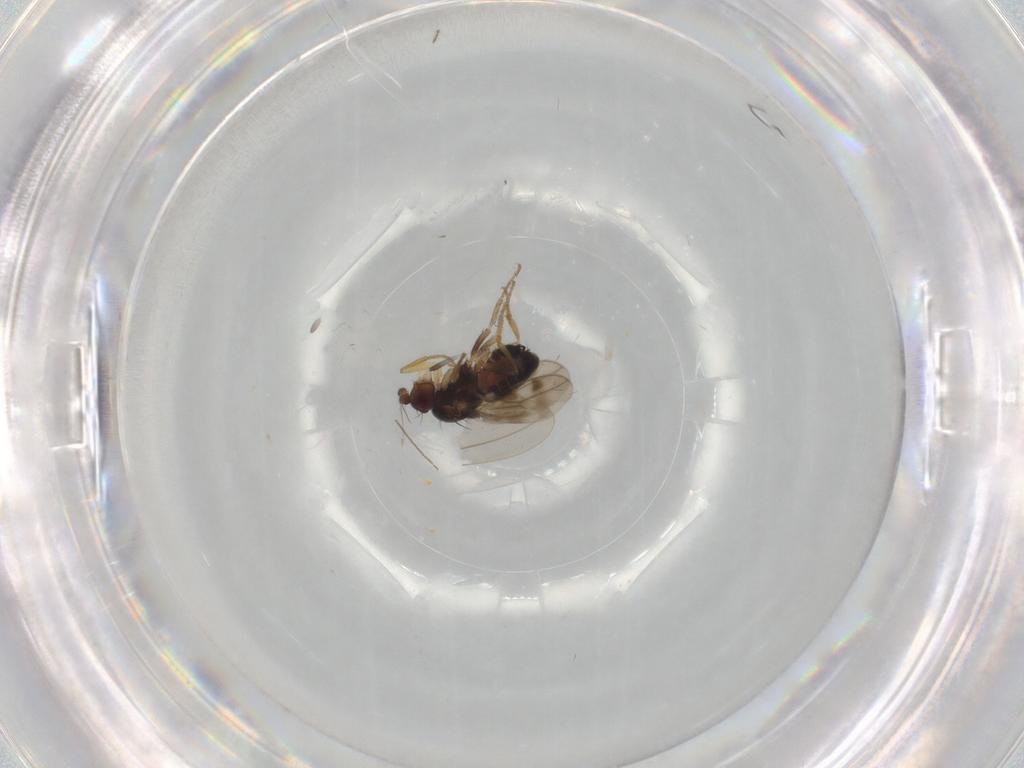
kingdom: Animalia
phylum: Arthropoda
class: Insecta
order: Diptera
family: Sphaeroceridae
